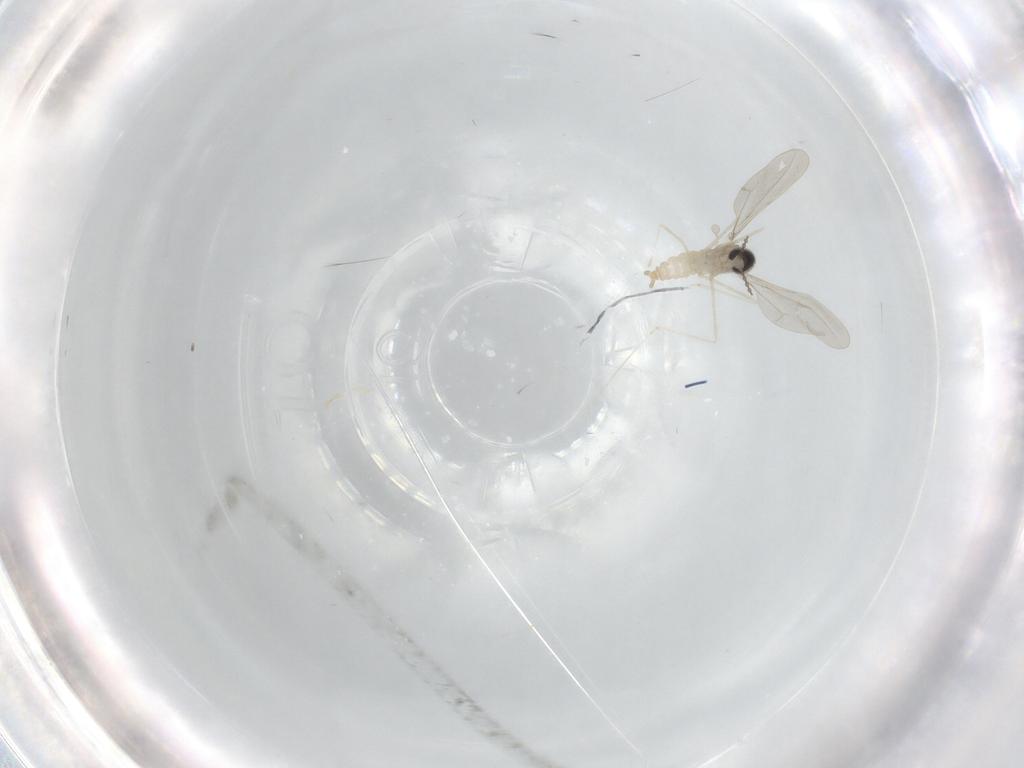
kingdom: Animalia
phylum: Arthropoda
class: Insecta
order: Diptera
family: Cecidomyiidae
